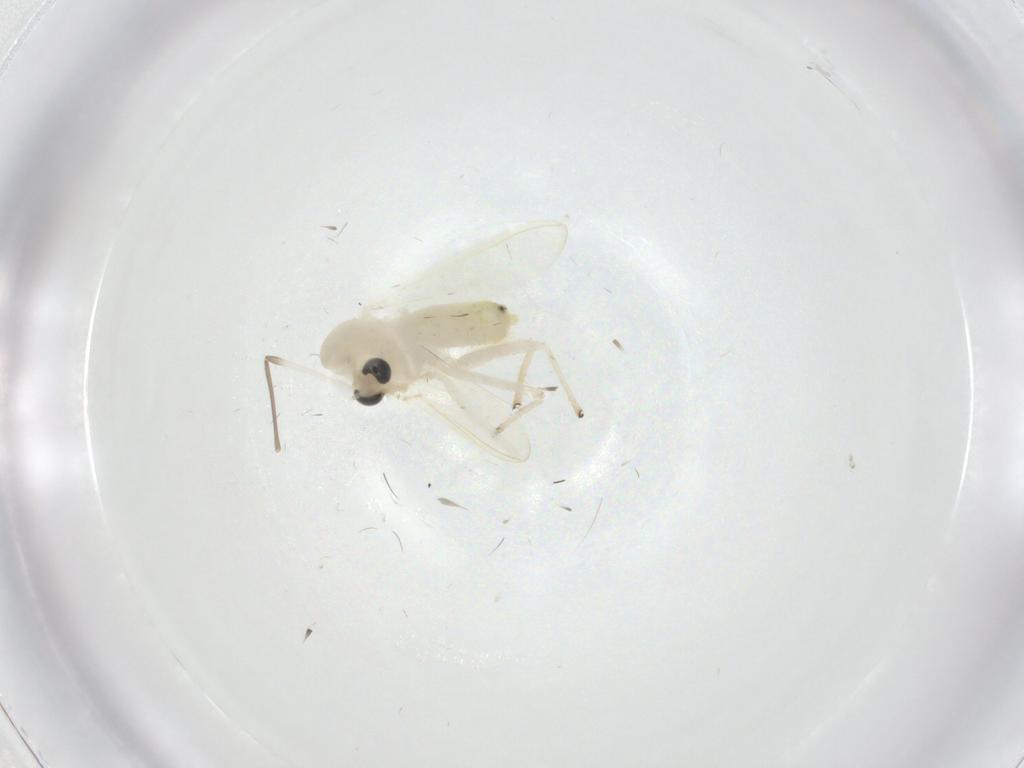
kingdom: Animalia
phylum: Arthropoda
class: Insecta
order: Diptera
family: Chironomidae
